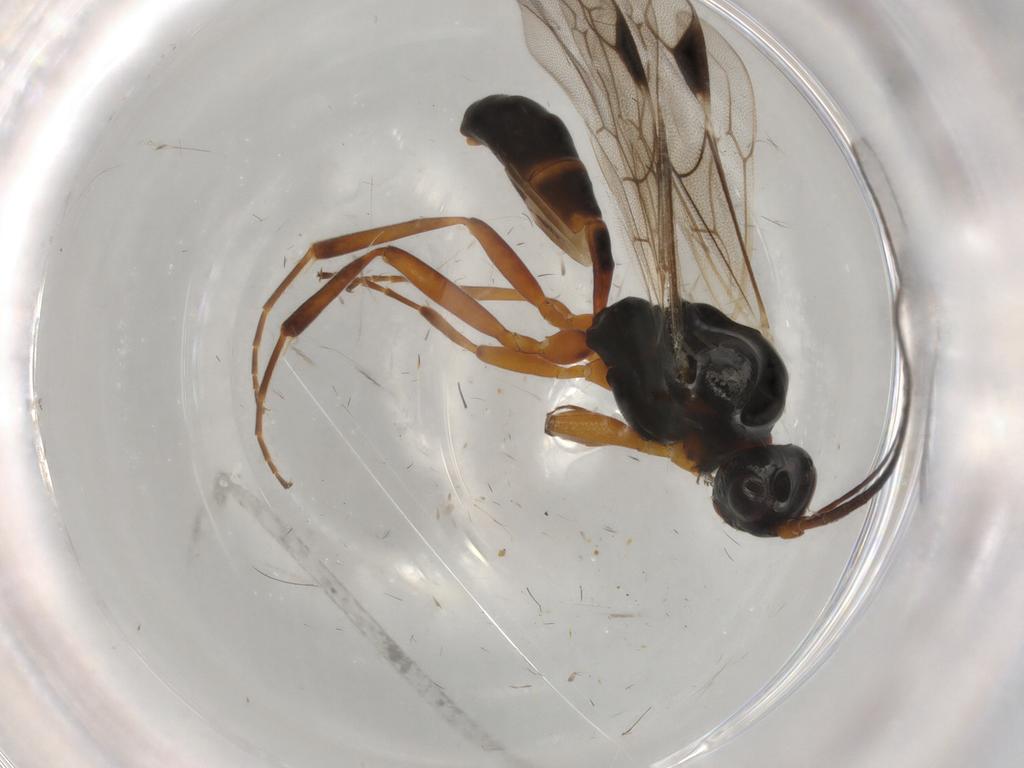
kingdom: Animalia
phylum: Arthropoda
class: Insecta
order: Hymenoptera
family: Ichneumonidae
